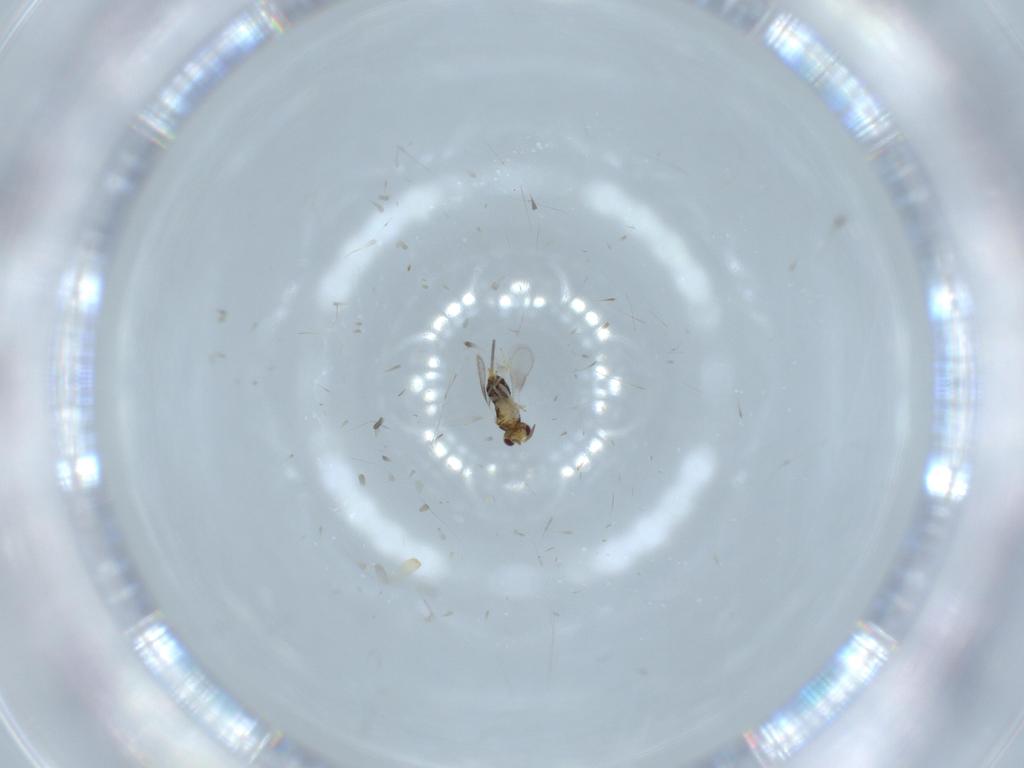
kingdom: Animalia
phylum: Arthropoda
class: Insecta
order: Hymenoptera
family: Aphelinidae
